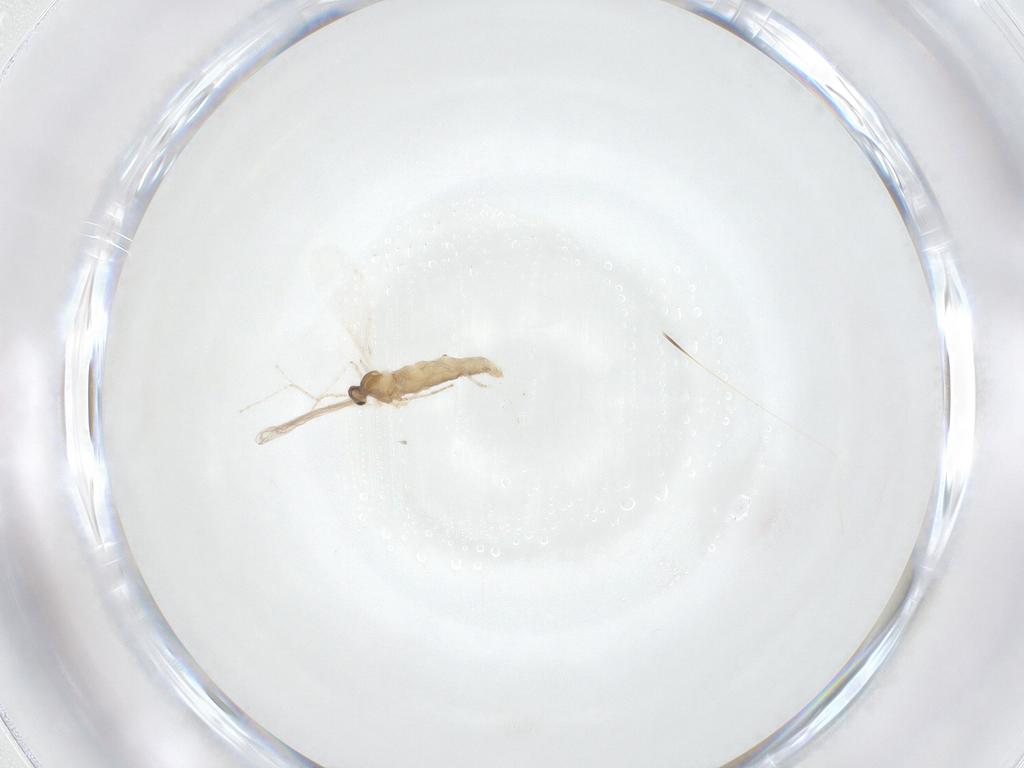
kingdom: Animalia
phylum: Arthropoda
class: Insecta
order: Diptera
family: Cecidomyiidae
